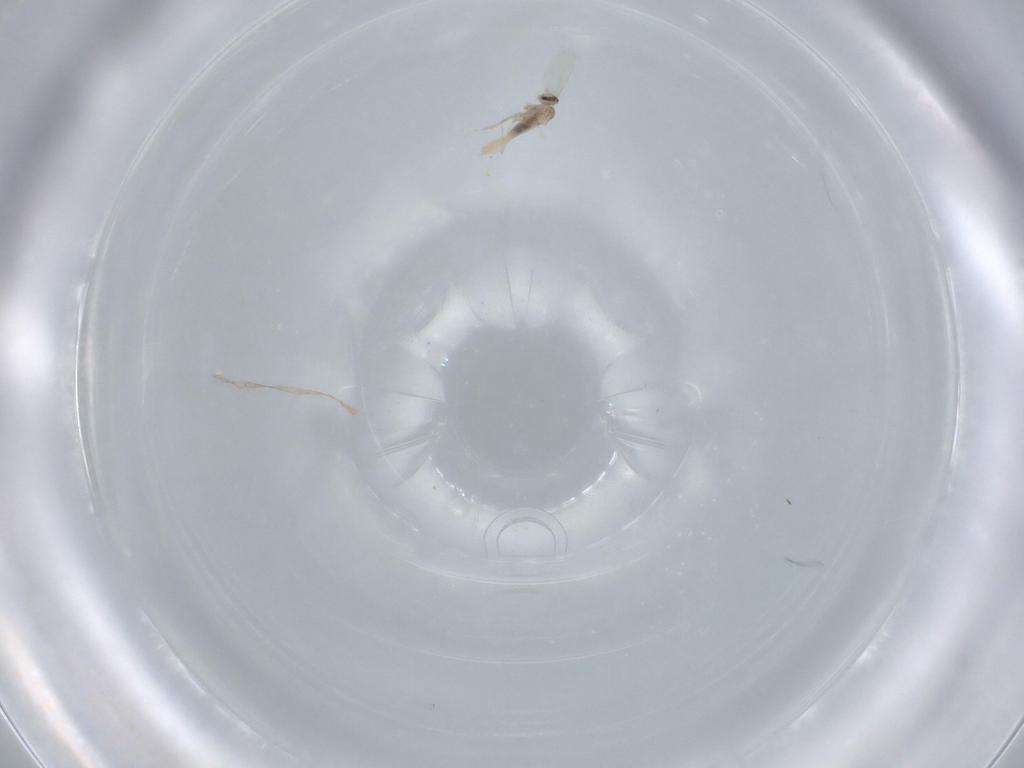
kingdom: Animalia
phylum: Arthropoda
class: Insecta
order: Diptera
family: Cecidomyiidae
